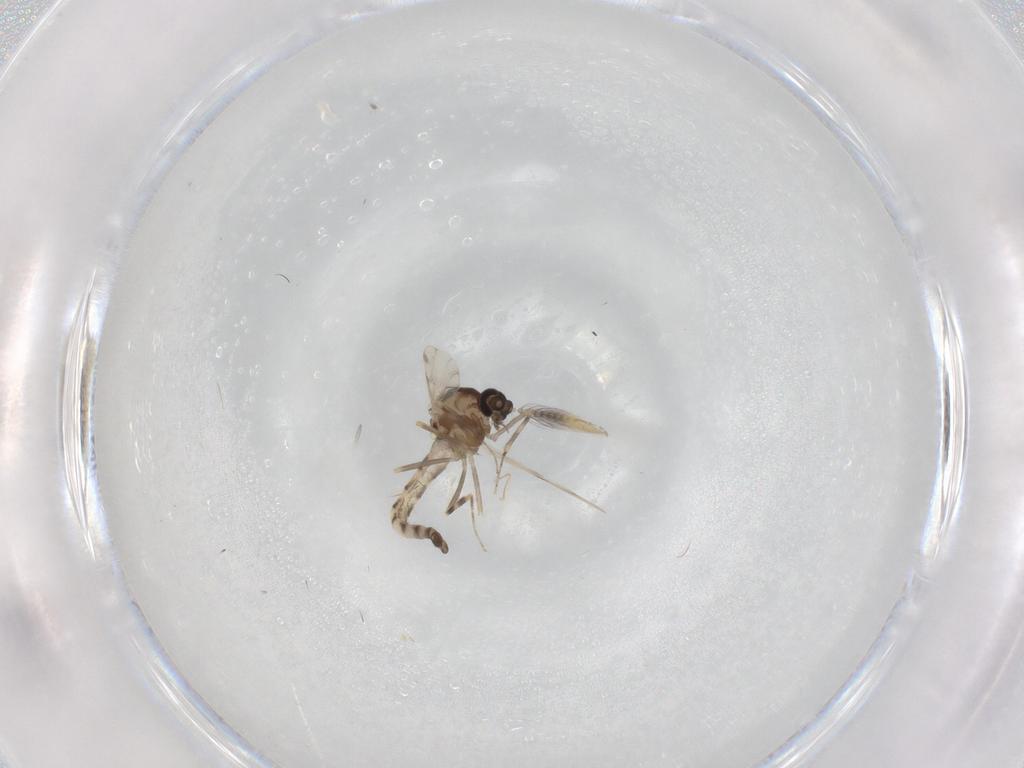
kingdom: Animalia
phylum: Arthropoda
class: Insecta
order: Diptera
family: Ceratopogonidae
